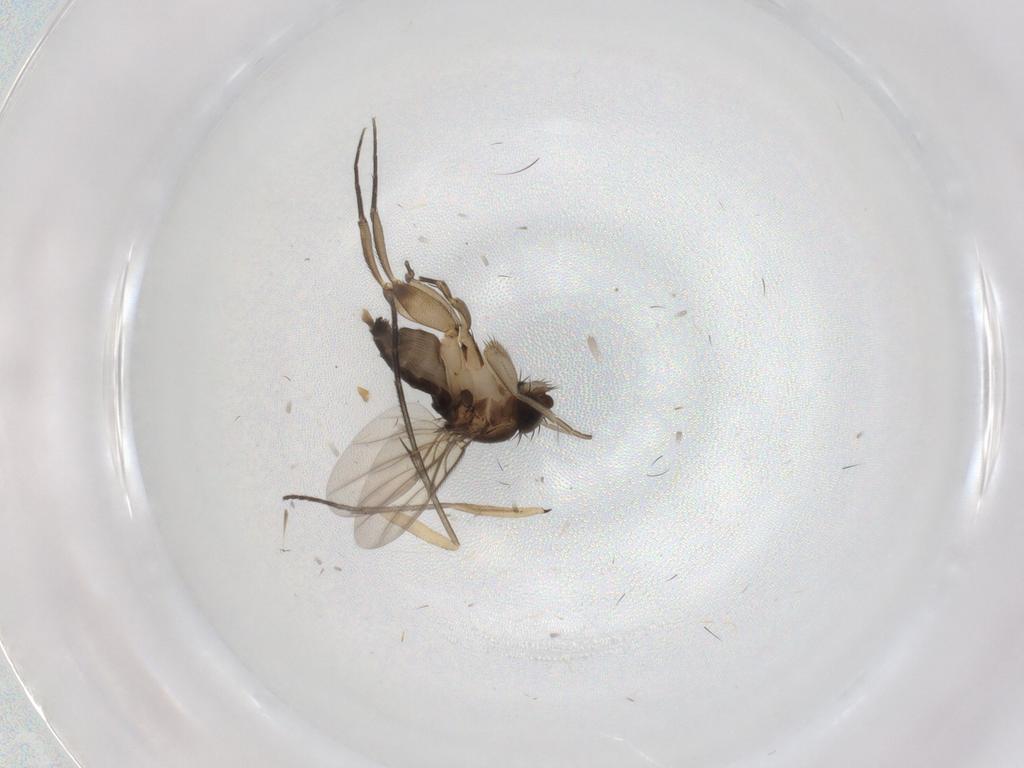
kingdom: Animalia
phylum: Arthropoda
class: Insecta
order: Diptera
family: Phoridae
